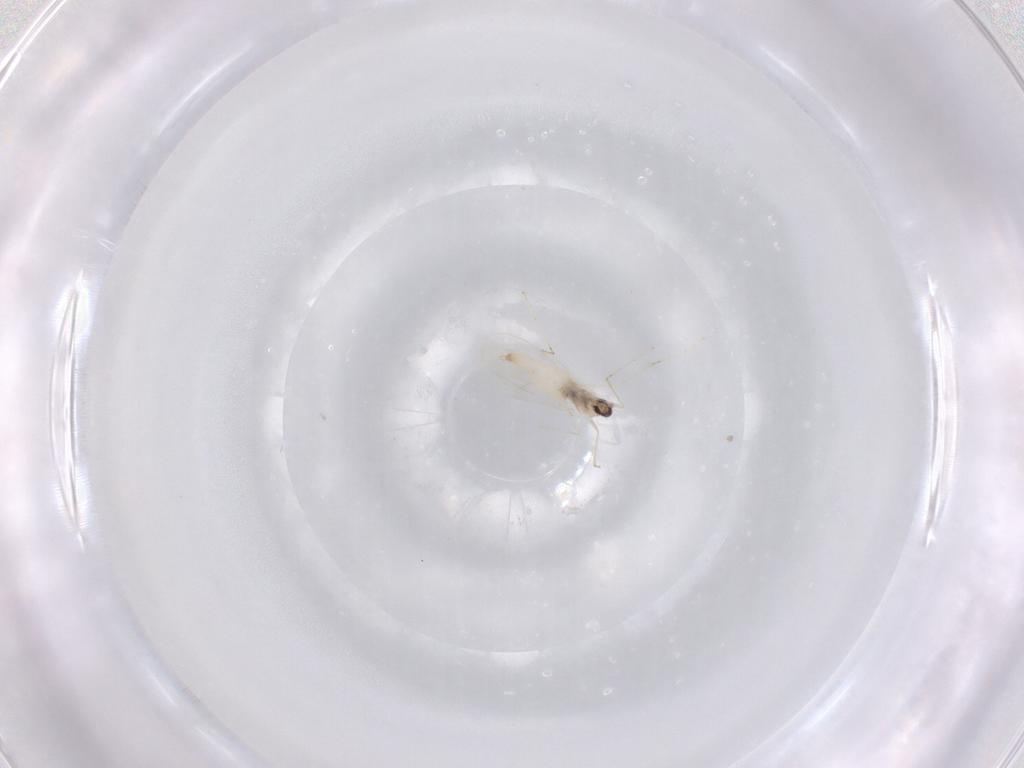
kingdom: Animalia
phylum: Arthropoda
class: Insecta
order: Diptera
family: Cecidomyiidae
